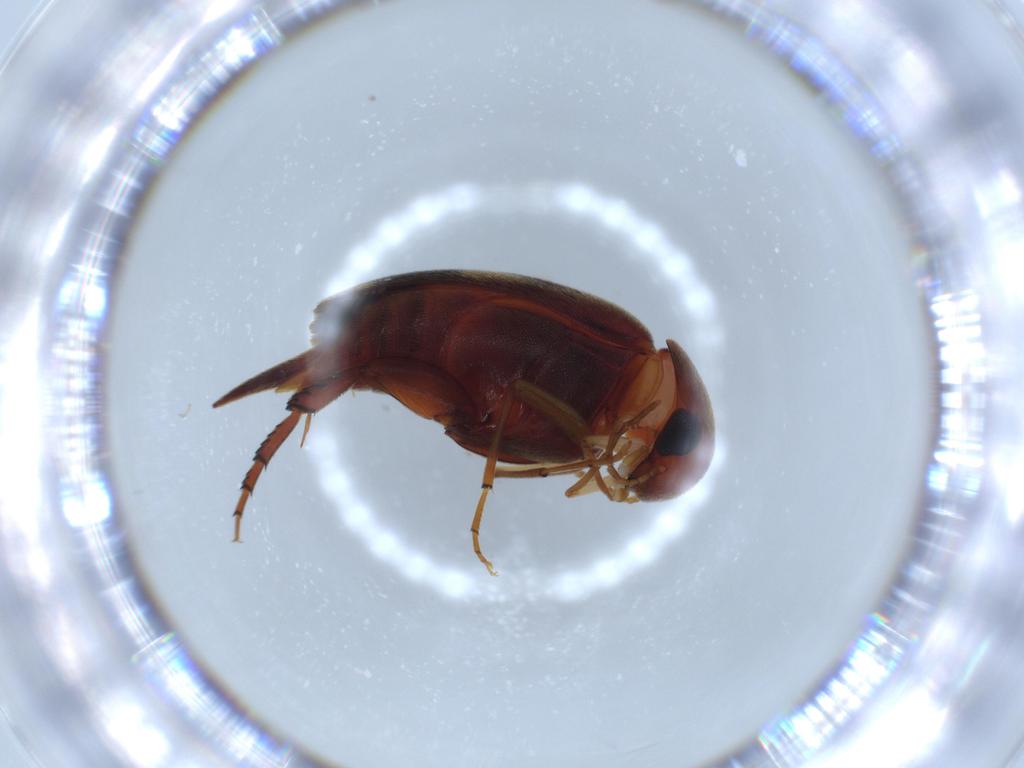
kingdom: Animalia
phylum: Arthropoda
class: Insecta
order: Coleoptera
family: Mordellidae
